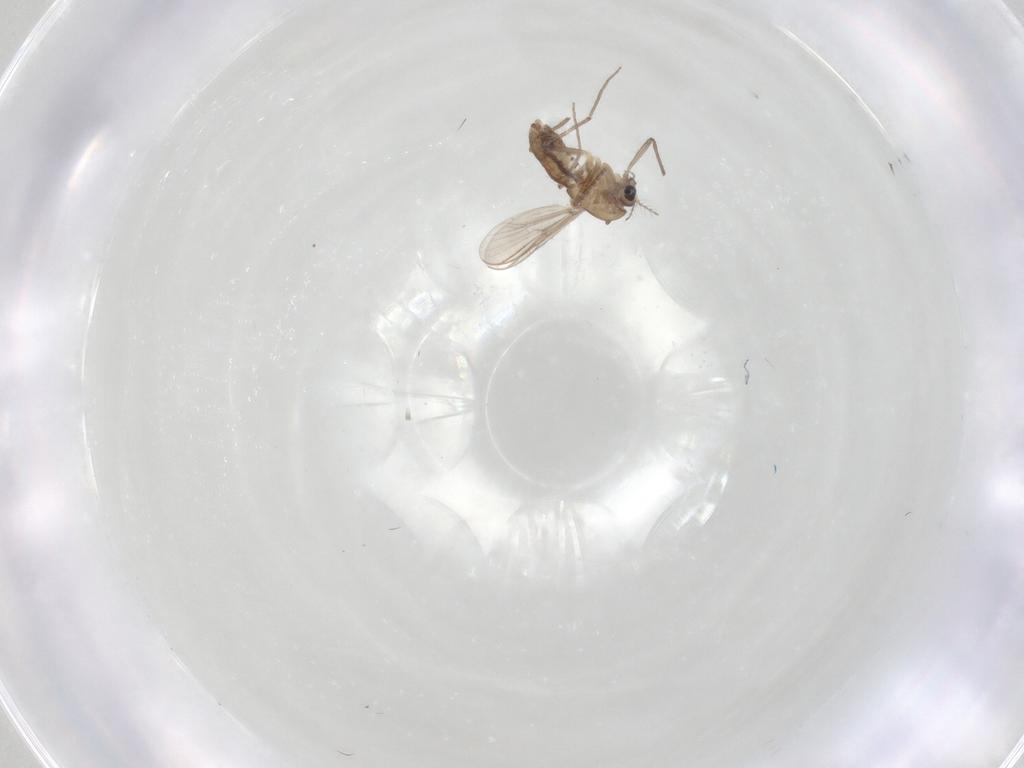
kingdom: Animalia
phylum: Arthropoda
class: Insecta
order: Diptera
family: Chironomidae
